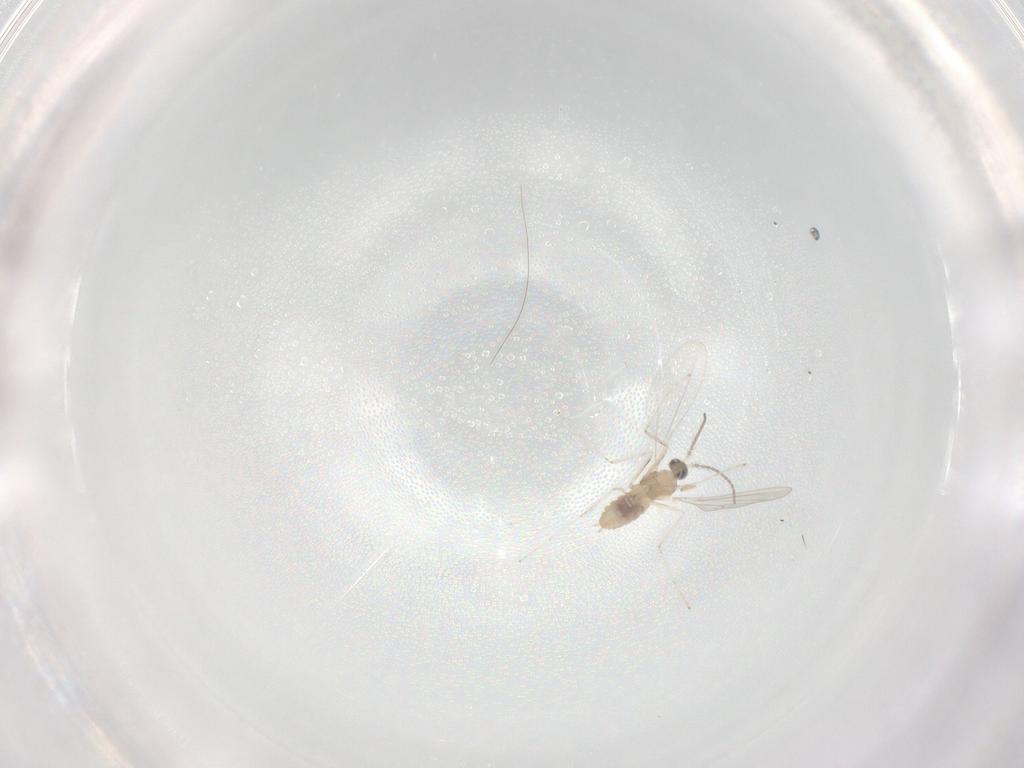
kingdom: Animalia
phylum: Arthropoda
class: Insecta
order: Diptera
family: Cecidomyiidae
